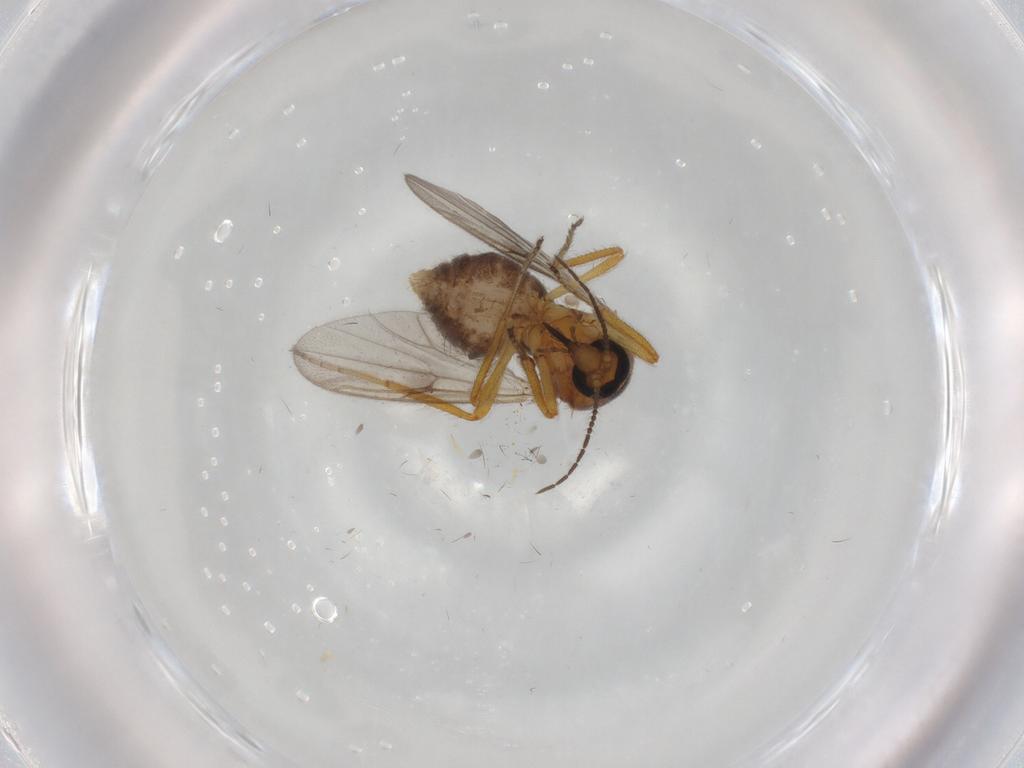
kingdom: Animalia
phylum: Arthropoda
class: Insecta
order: Diptera
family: Ceratopogonidae
